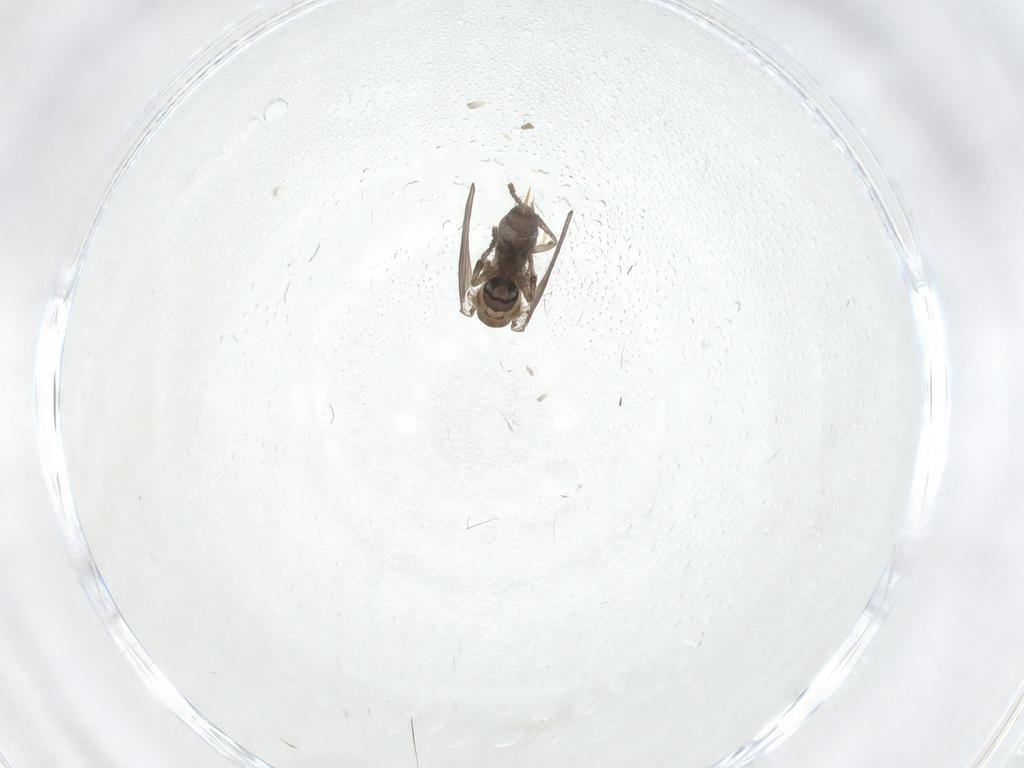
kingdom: Animalia
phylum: Arthropoda
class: Insecta
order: Diptera
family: Psychodidae
